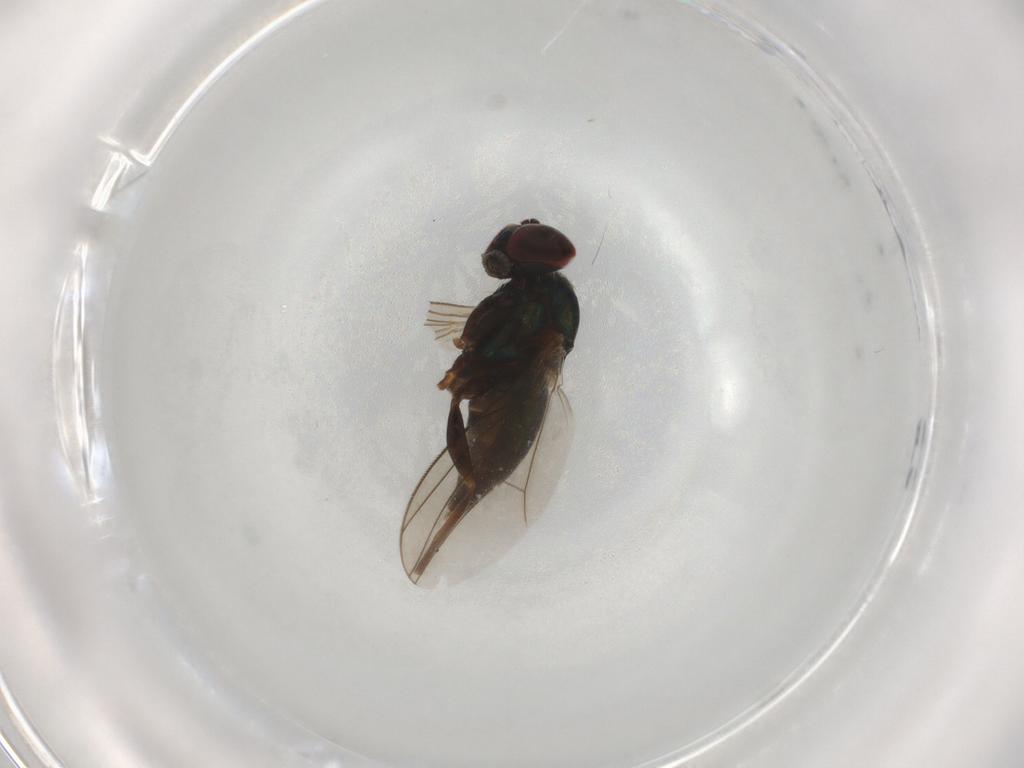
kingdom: Animalia
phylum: Arthropoda
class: Insecta
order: Diptera
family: Dolichopodidae
